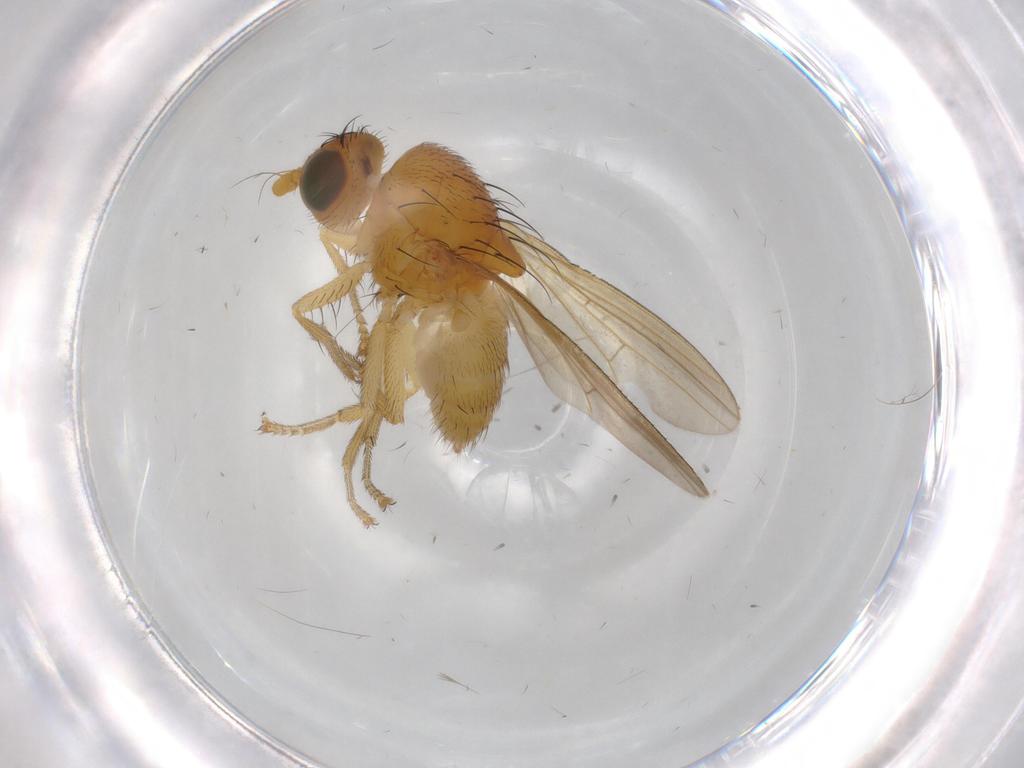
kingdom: Animalia
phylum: Arthropoda
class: Insecta
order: Diptera
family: Lauxaniidae
